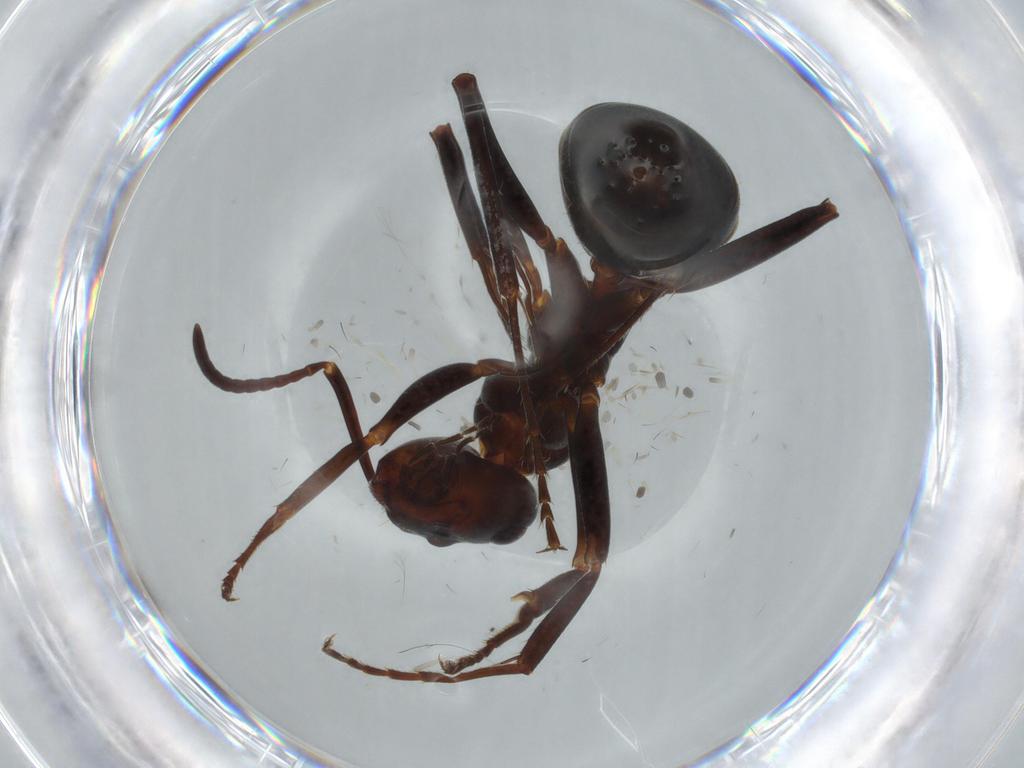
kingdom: Animalia
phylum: Arthropoda
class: Insecta
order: Hymenoptera
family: Formicidae
